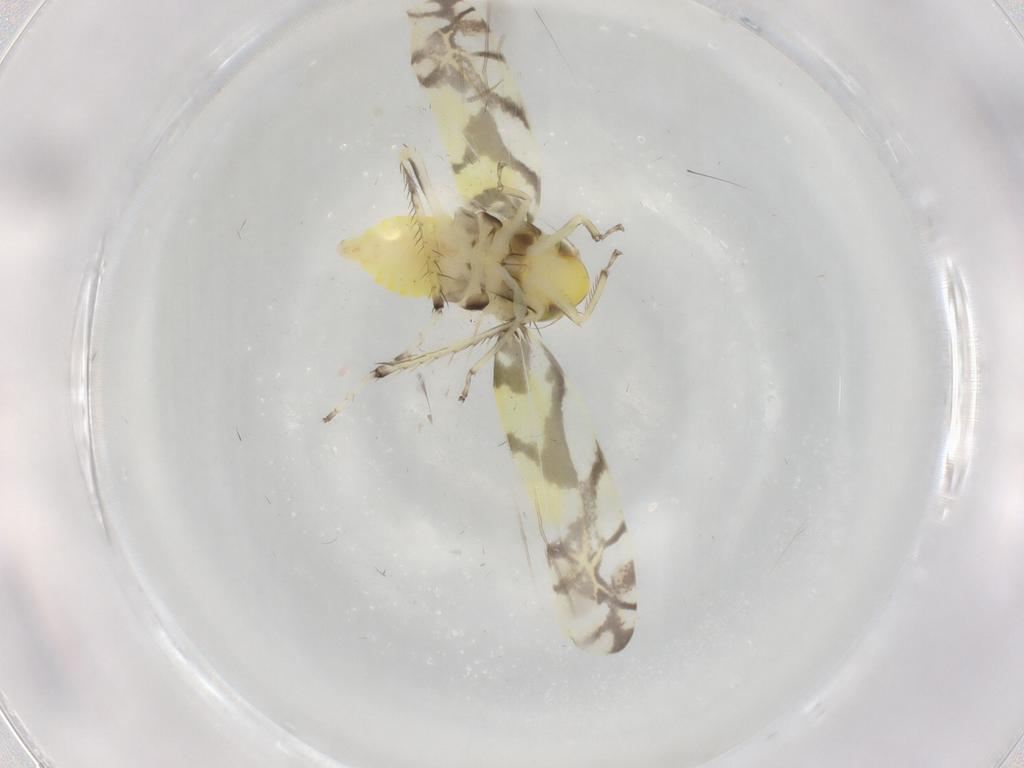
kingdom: Animalia
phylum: Arthropoda
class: Insecta
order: Hemiptera
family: Cicadellidae
